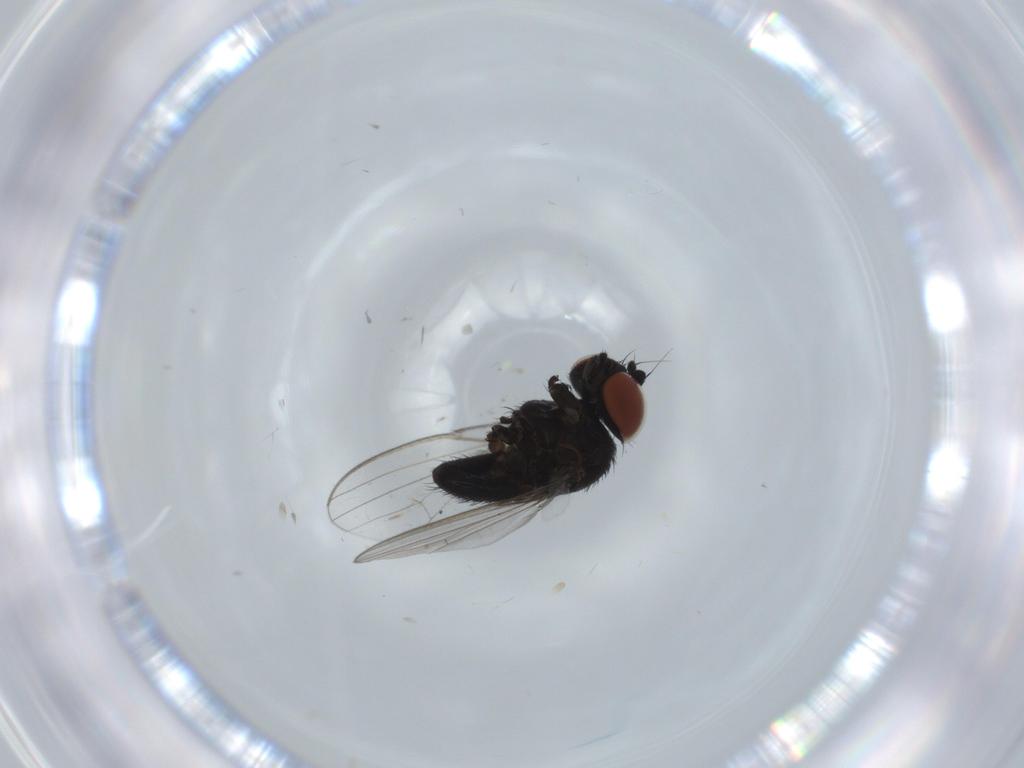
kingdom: Animalia
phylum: Arthropoda
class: Insecta
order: Diptera
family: Milichiidae
